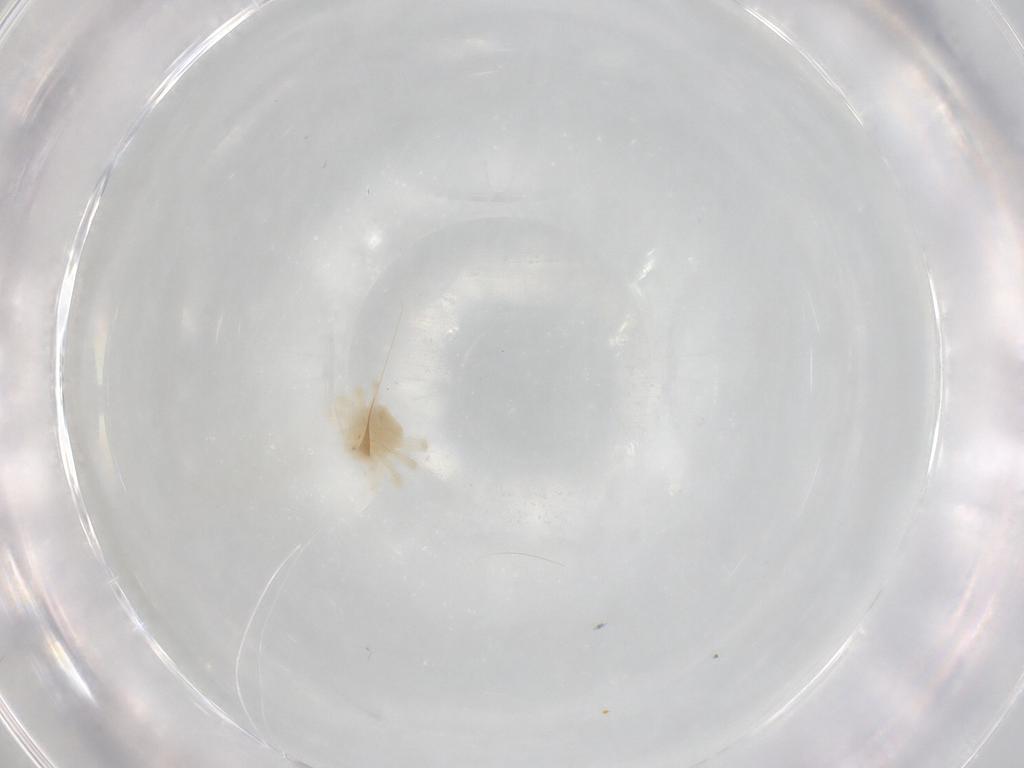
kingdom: Animalia
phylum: Arthropoda
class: Arachnida
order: Trombidiformes
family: Anystidae
